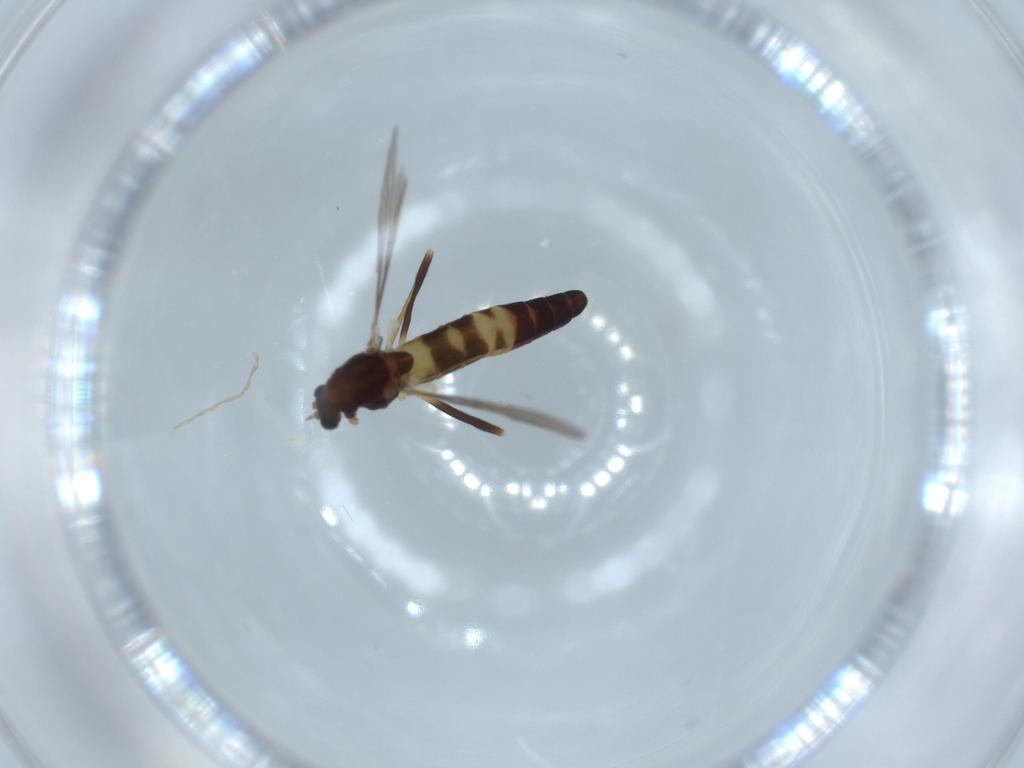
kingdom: Animalia
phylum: Arthropoda
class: Insecta
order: Diptera
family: Chironomidae
